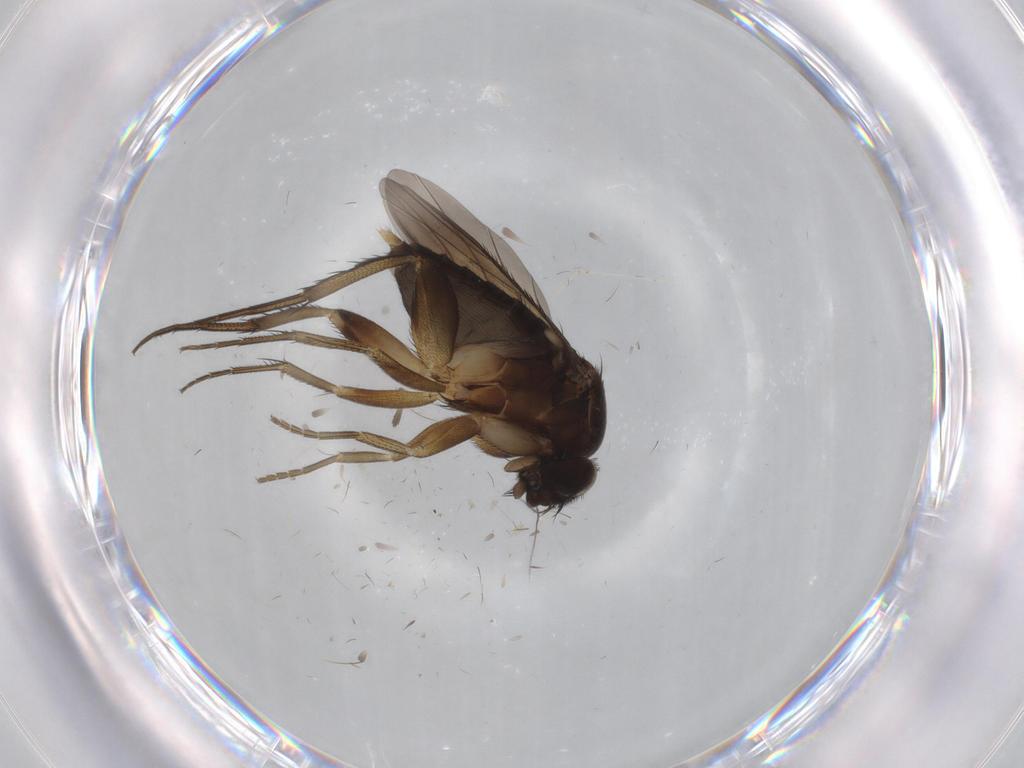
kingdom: Animalia
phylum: Arthropoda
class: Insecta
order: Diptera
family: Phoridae
